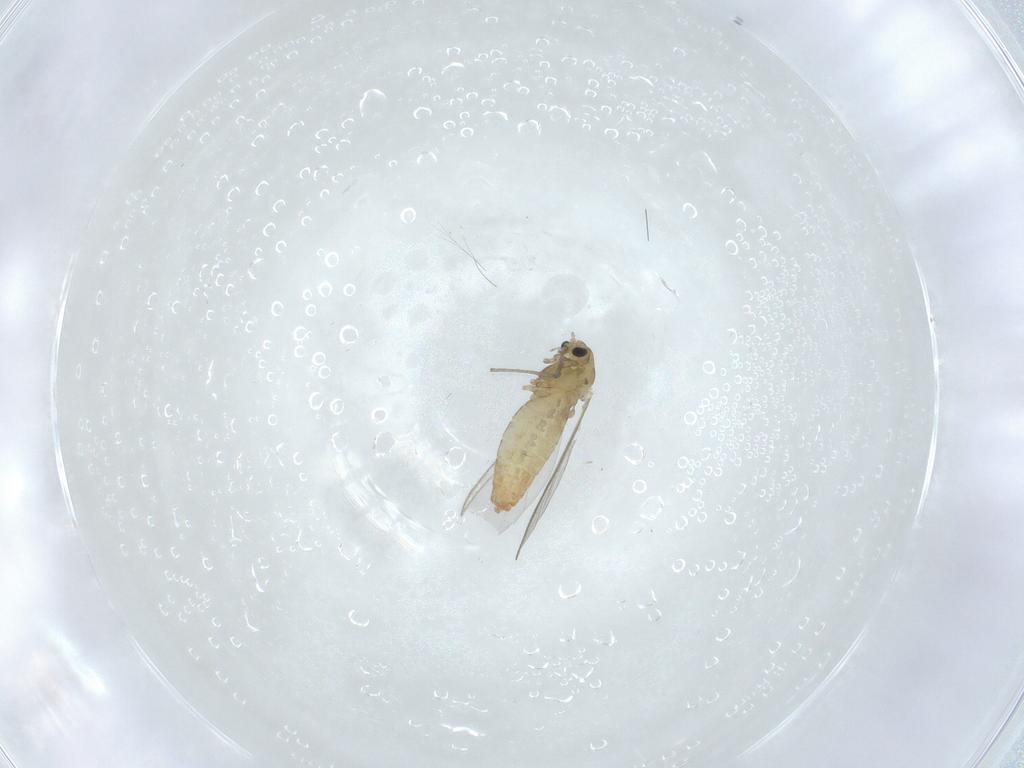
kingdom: Animalia
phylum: Arthropoda
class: Insecta
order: Diptera
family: Chironomidae
